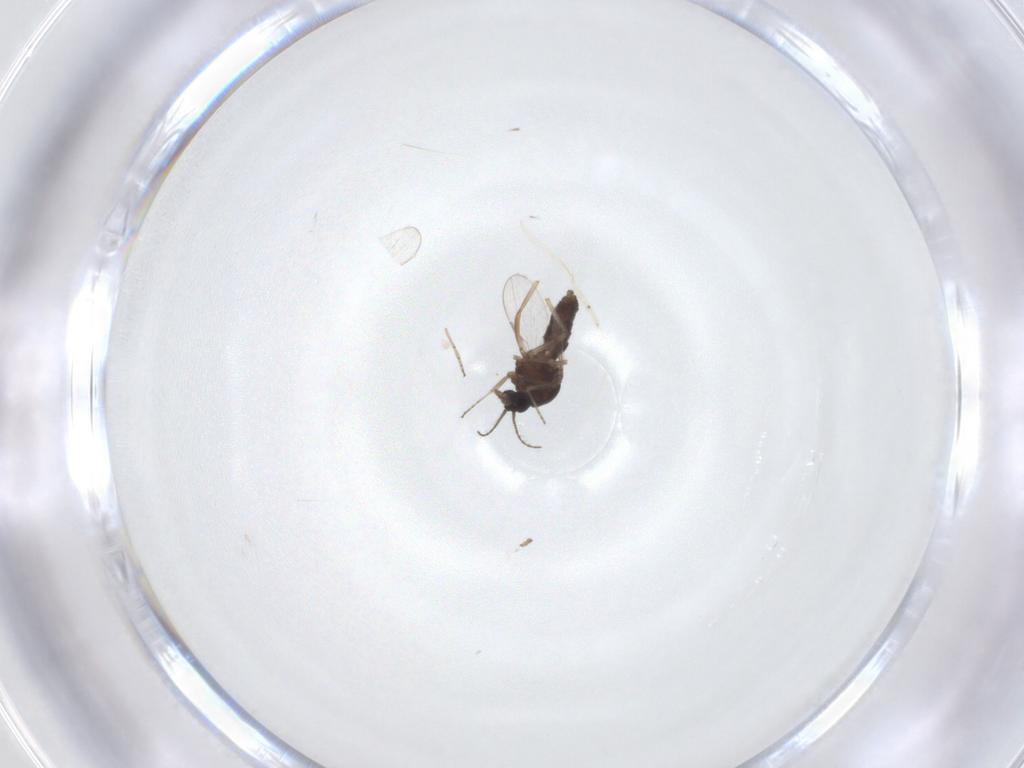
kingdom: Animalia
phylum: Arthropoda
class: Insecta
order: Diptera
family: Ceratopogonidae
